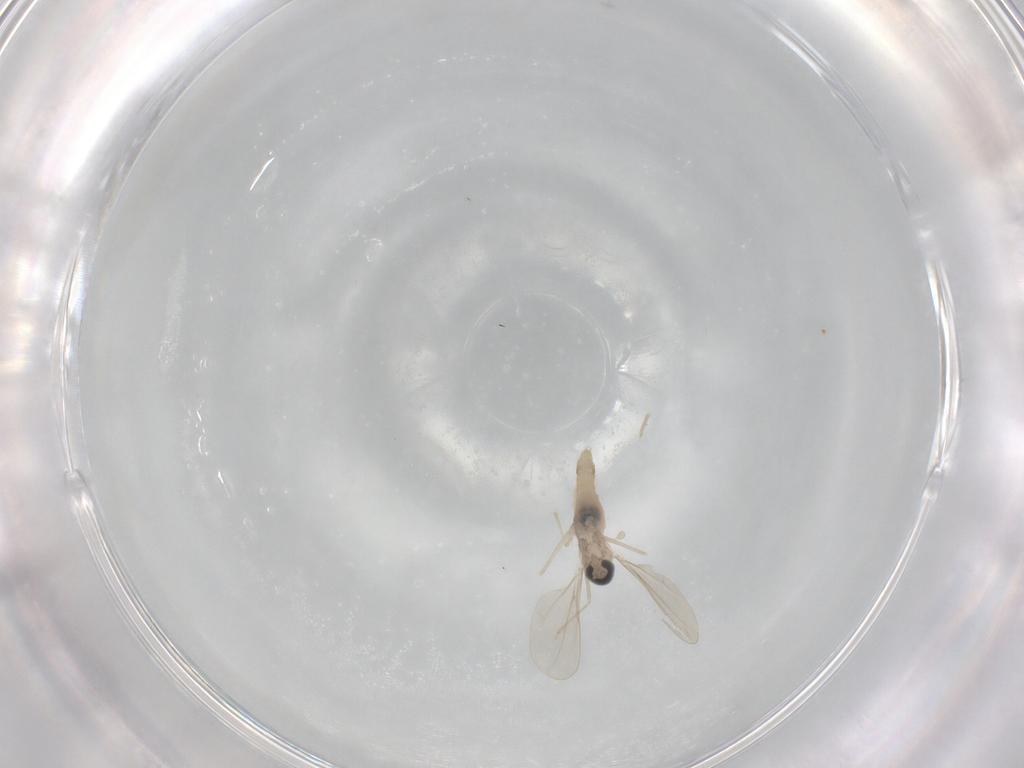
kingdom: Animalia
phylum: Arthropoda
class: Insecta
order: Diptera
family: Cecidomyiidae
